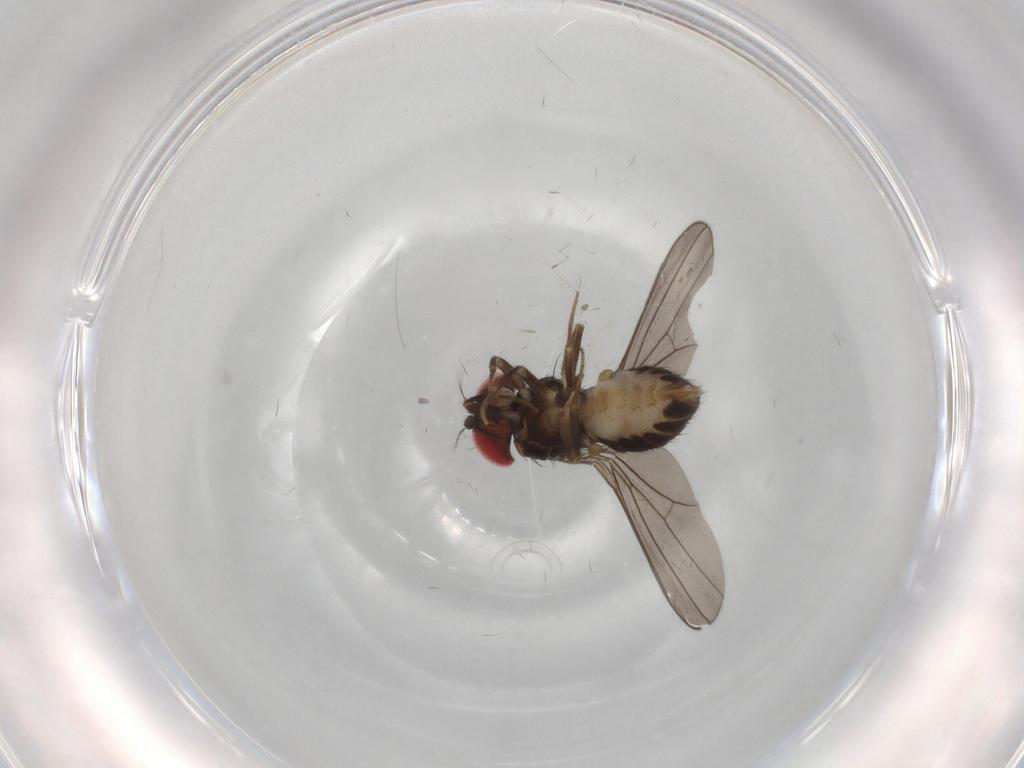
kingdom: Animalia
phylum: Arthropoda
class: Insecta
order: Diptera
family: Drosophilidae
